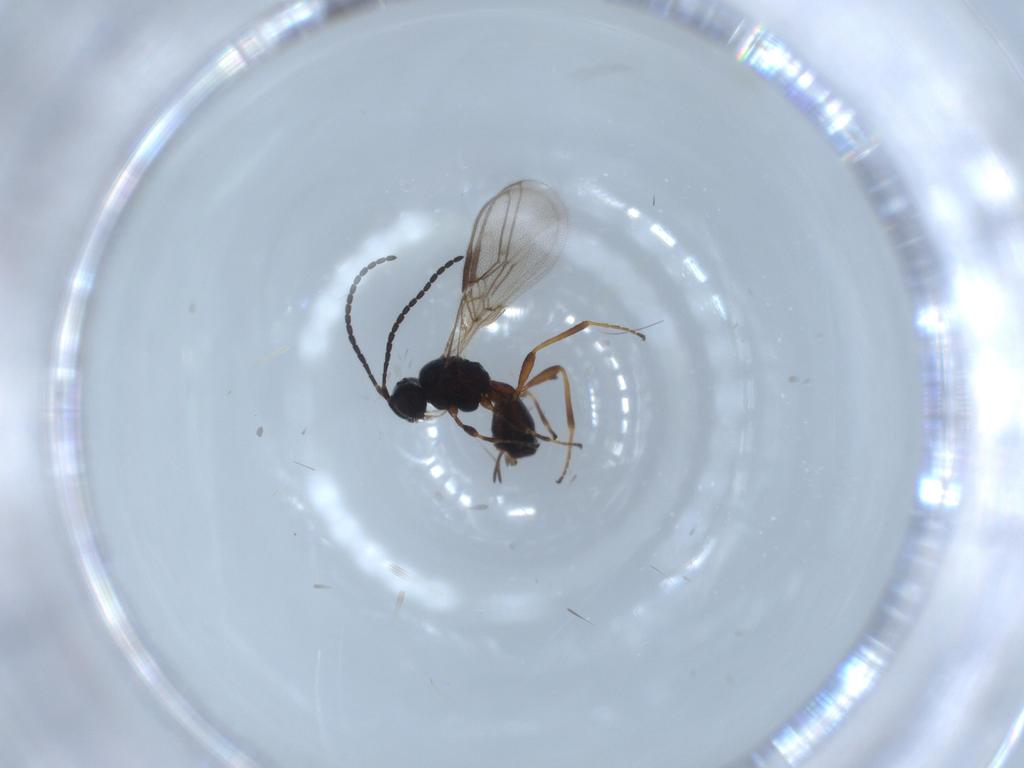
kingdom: Animalia
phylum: Arthropoda
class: Insecta
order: Hymenoptera
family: Braconidae
